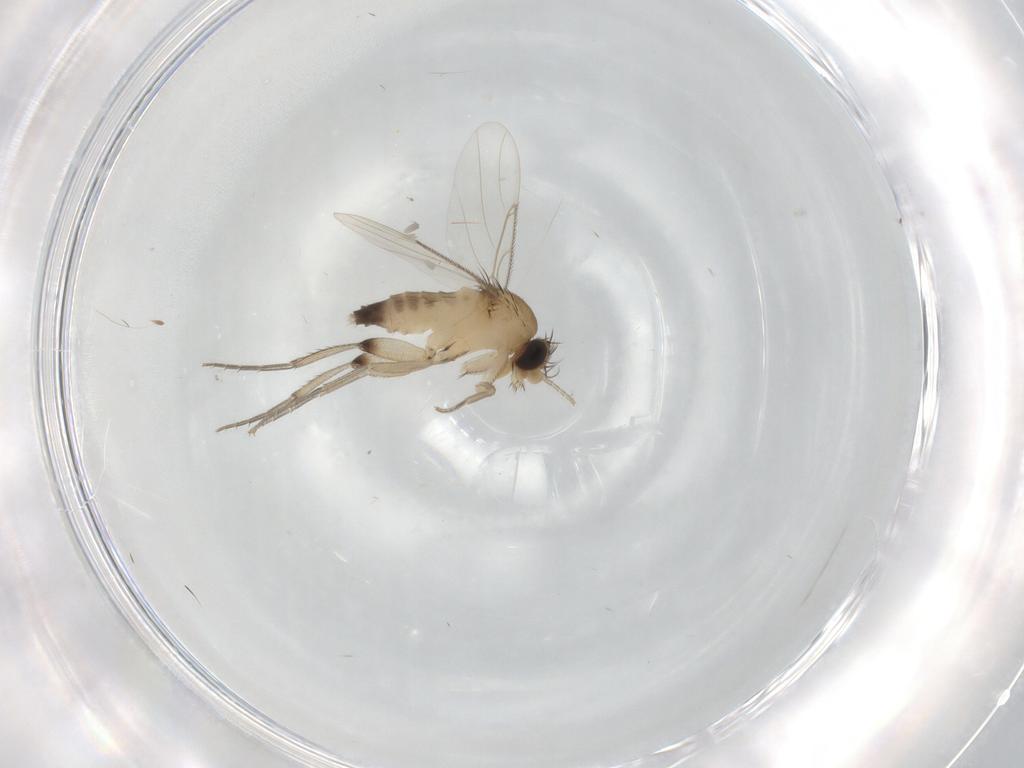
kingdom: Animalia
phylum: Arthropoda
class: Insecta
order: Diptera
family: Phoridae
